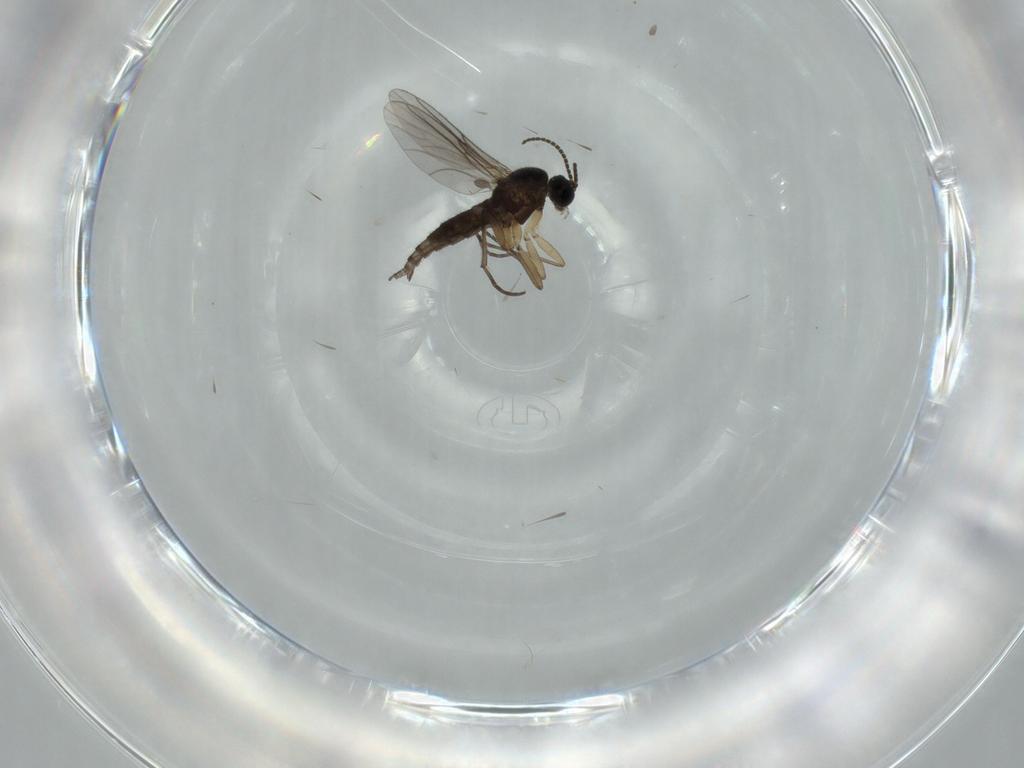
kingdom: Animalia
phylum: Arthropoda
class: Insecta
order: Diptera
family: Sciaridae
